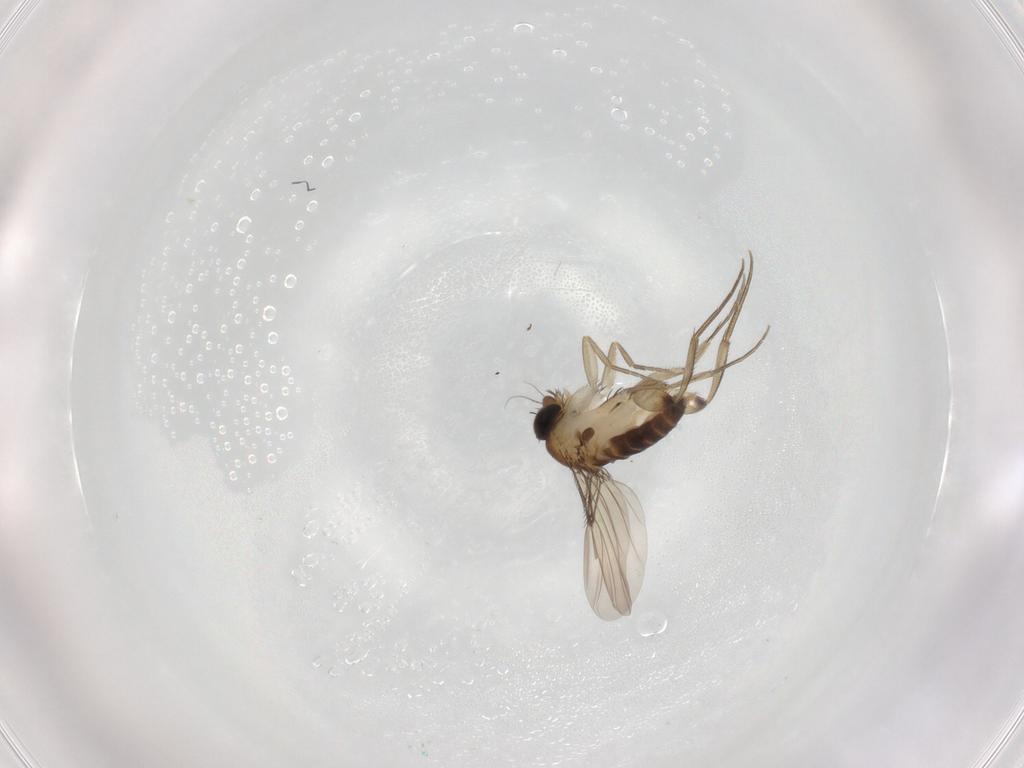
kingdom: Animalia
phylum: Arthropoda
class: Insecta
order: Diptera
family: Phoridae
